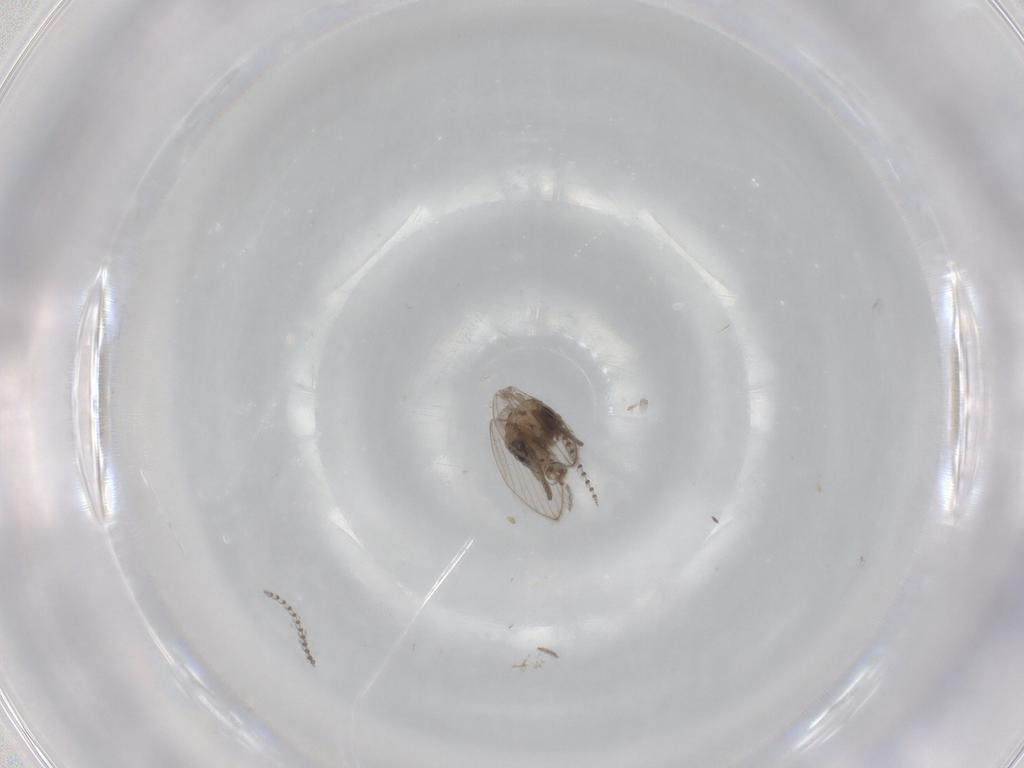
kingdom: Animalia
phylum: Arthropoda
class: Insecta
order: Diptera
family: Psychodidae
